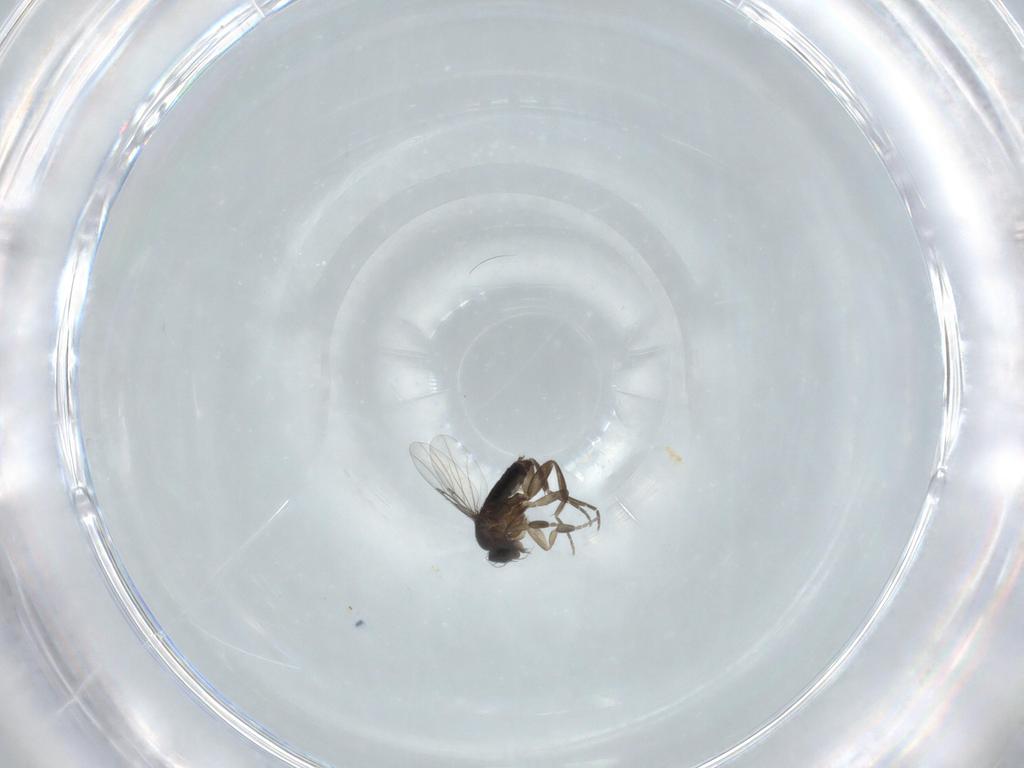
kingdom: Animalia
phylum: Arthropoda
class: Insecta
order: Diptera
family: Phoridae
